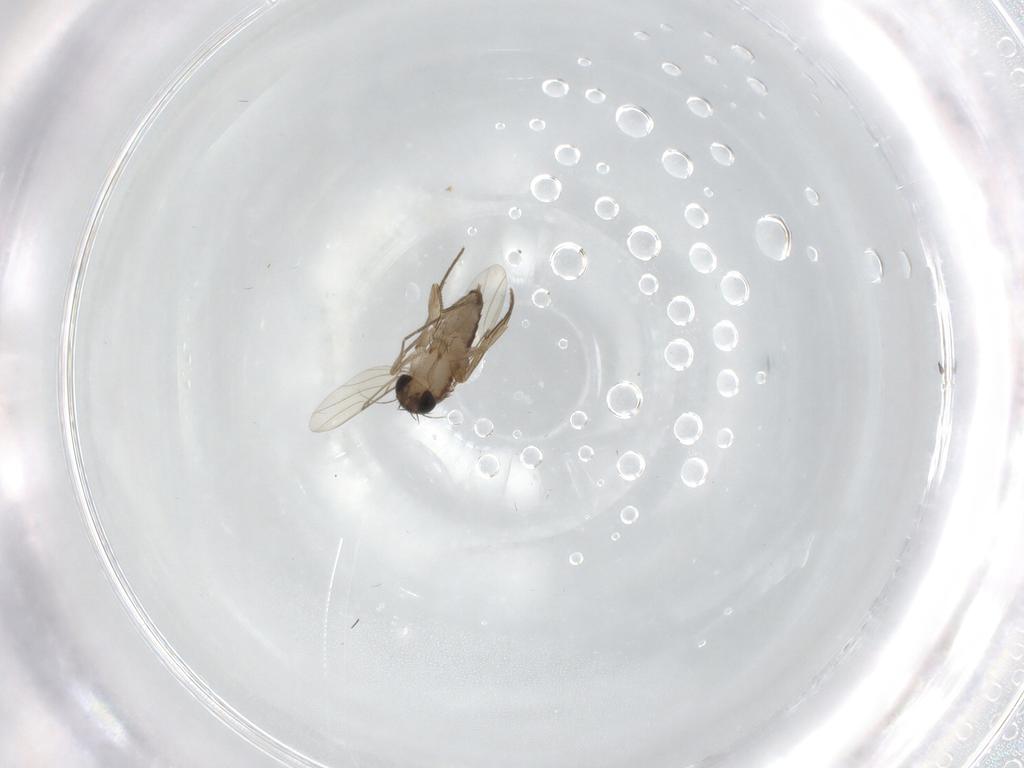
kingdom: Animalia
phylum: Arthropoda
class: Insecta
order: Diptera
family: Phoridae
